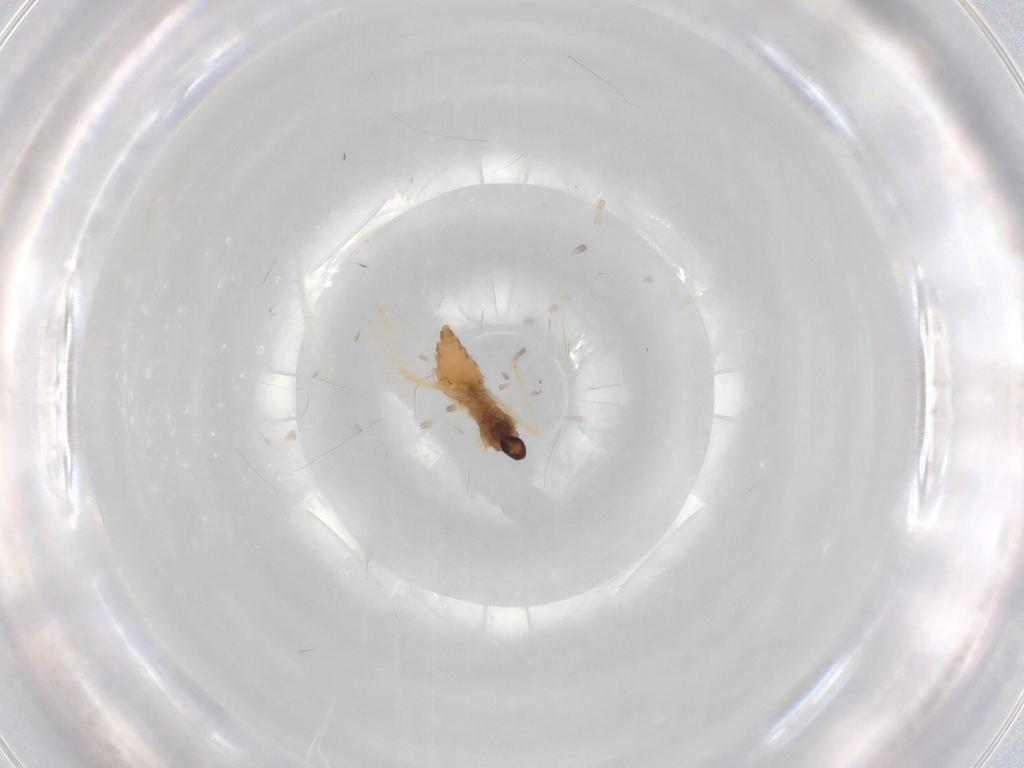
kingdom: Animalia
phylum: Arthropoda
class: Insecta
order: Diptera
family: Cecidomyiidae
